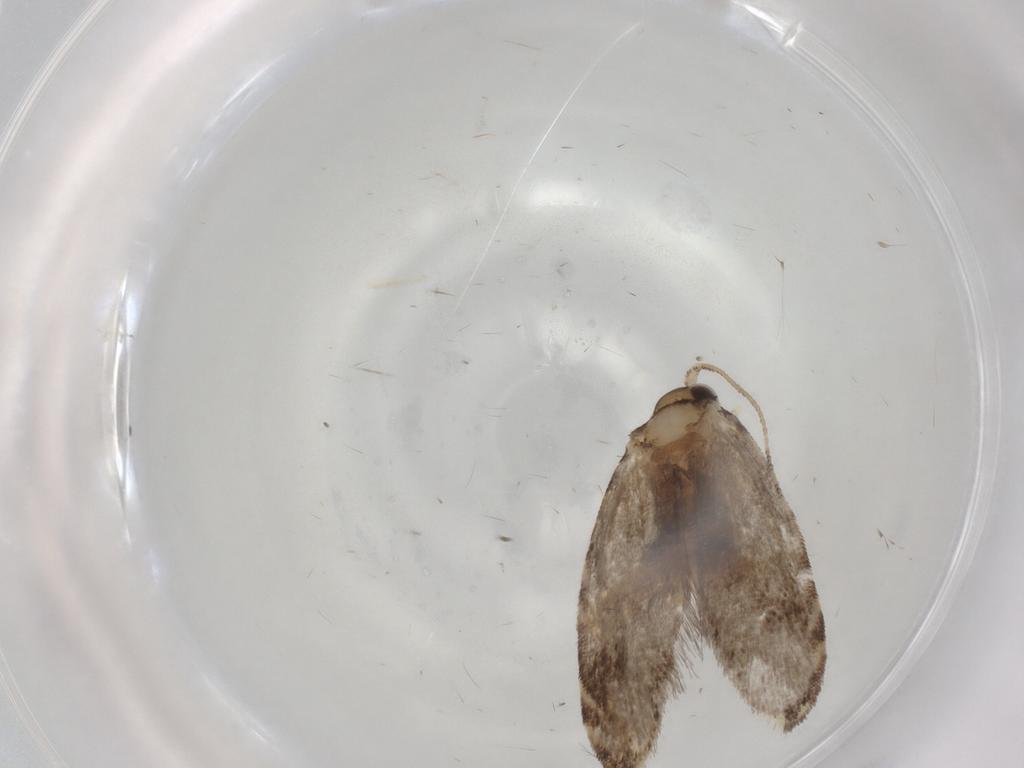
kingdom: Animalia
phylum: Arthropoda
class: Insecta
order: Lepidoptera
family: Tineidae
